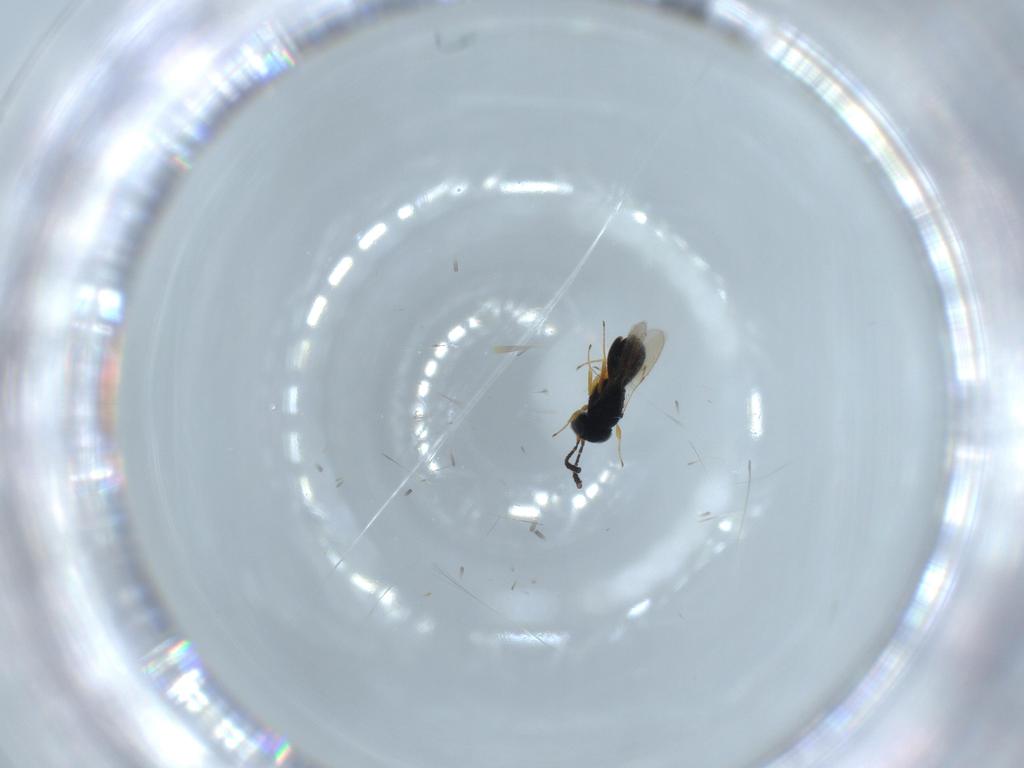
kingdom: Animalia
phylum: Arthropoda
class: Insecta
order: Hymenoptera
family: Scelionidae
